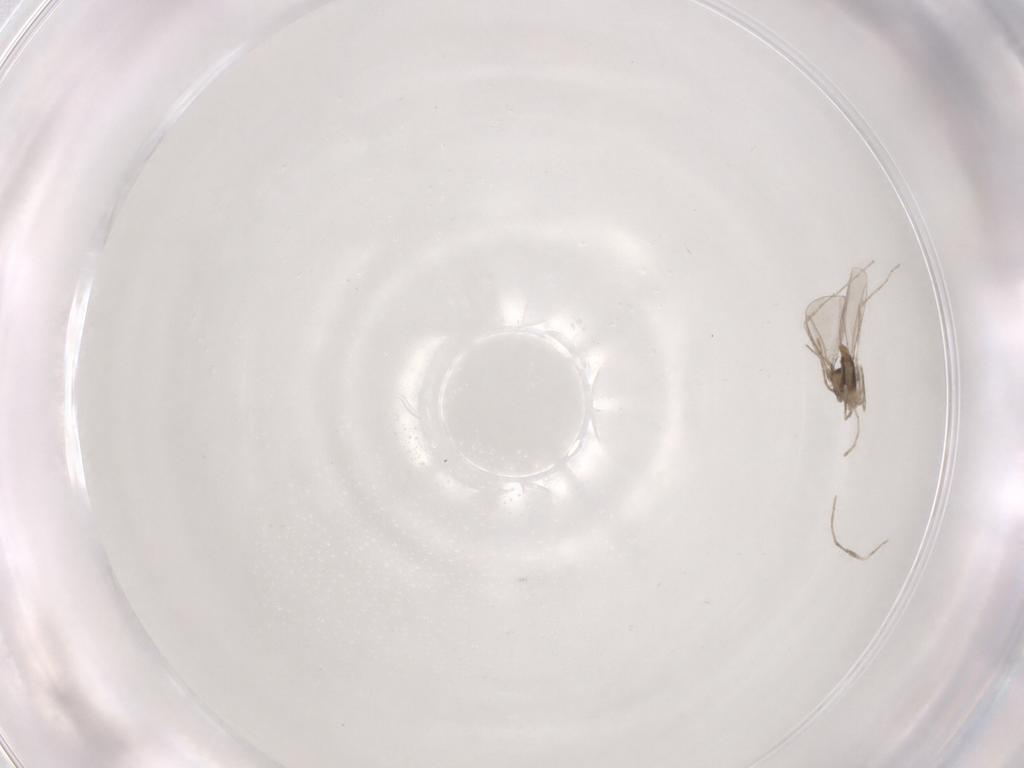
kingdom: Animalia
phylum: Arthropoda
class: Insecta
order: Diptera
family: Cecidomyiidae
